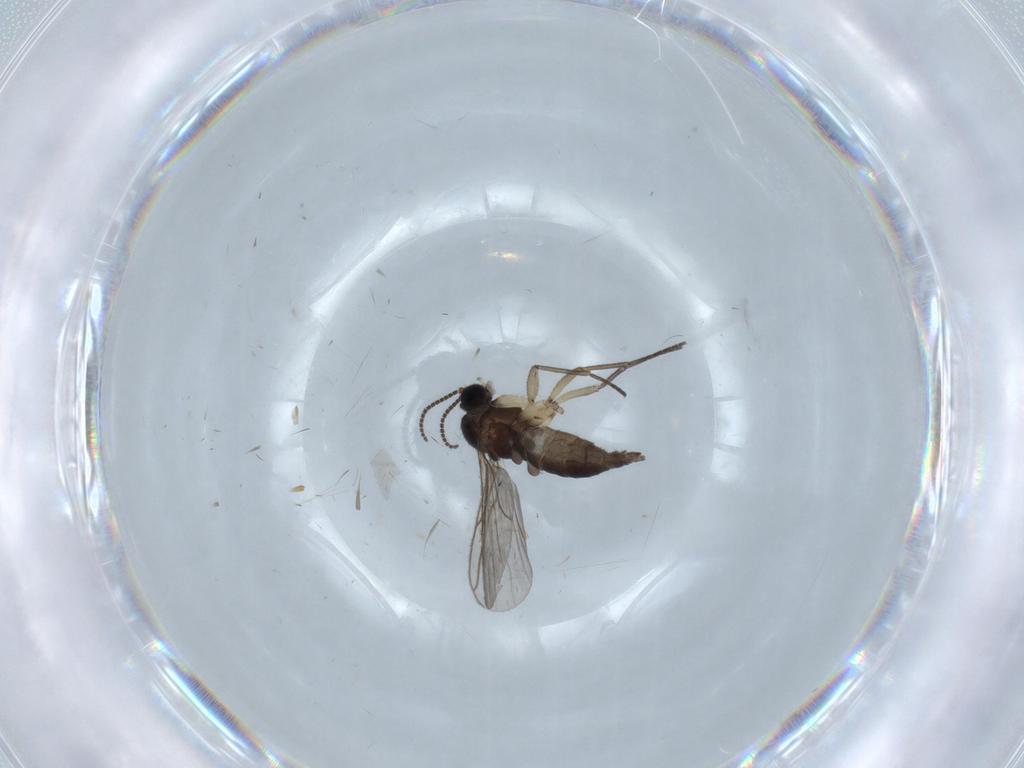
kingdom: Animalia
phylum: Arthropoda
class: Insecta
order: Diptera
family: Sciaridae
